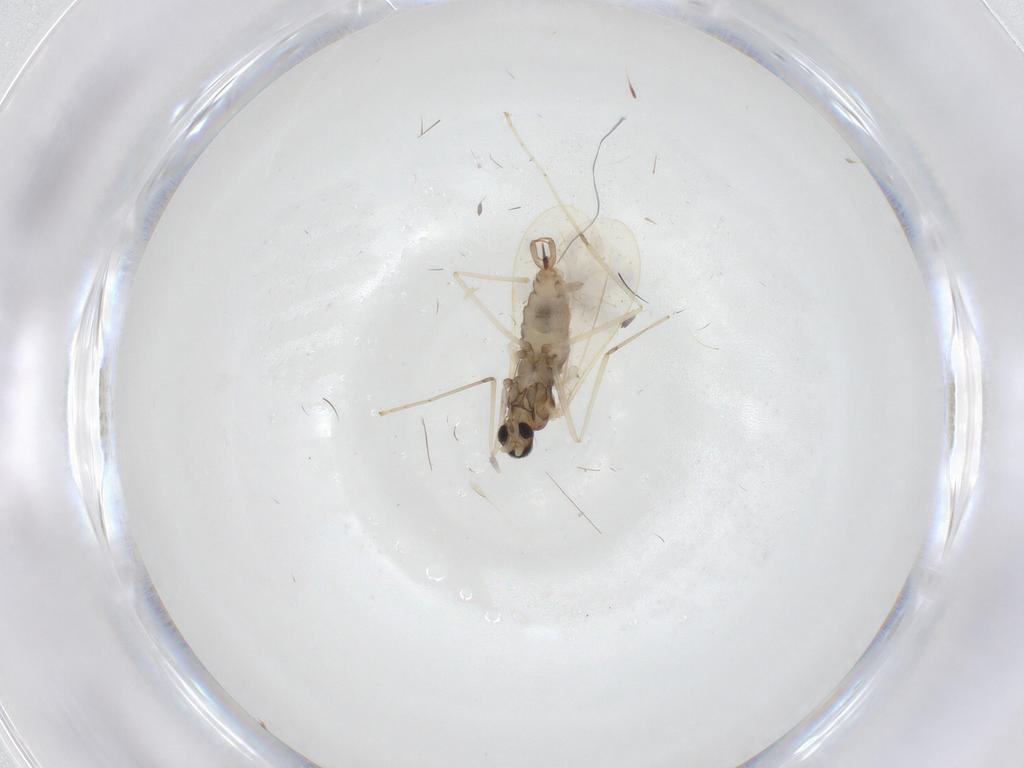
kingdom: Animalia
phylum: Arthropoda
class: Insecta
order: Diptera
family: Cecidomyiidae
